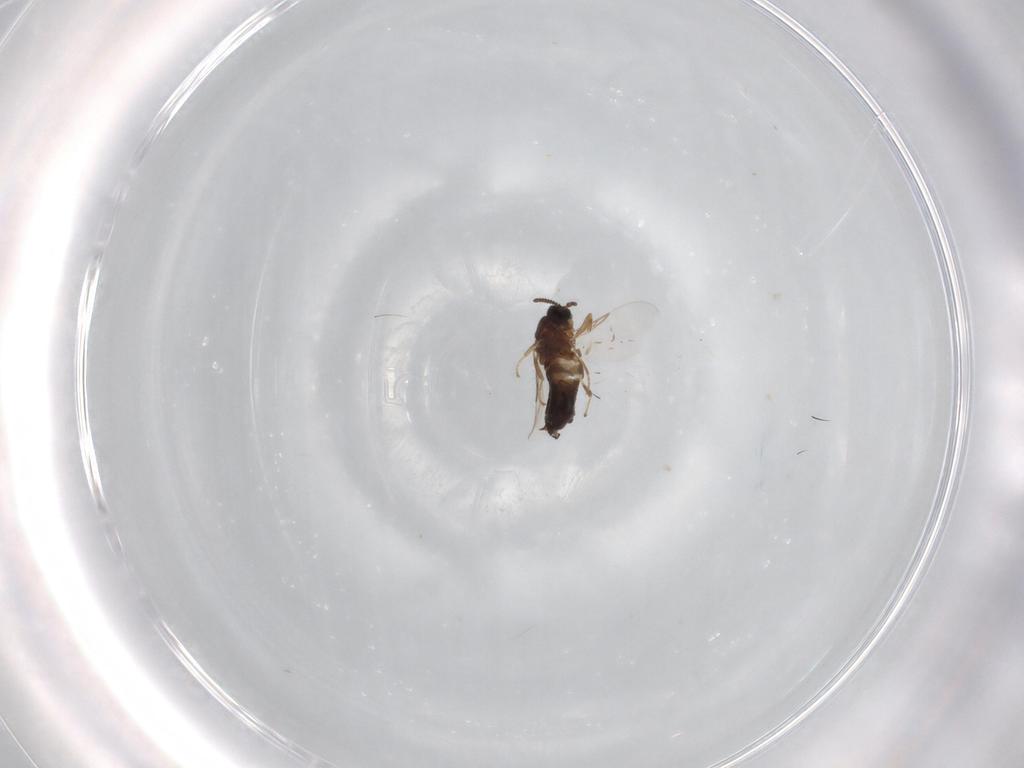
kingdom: Animalia
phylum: Arthropoda
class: Insecta
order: Diptera
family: Scatopsidae
